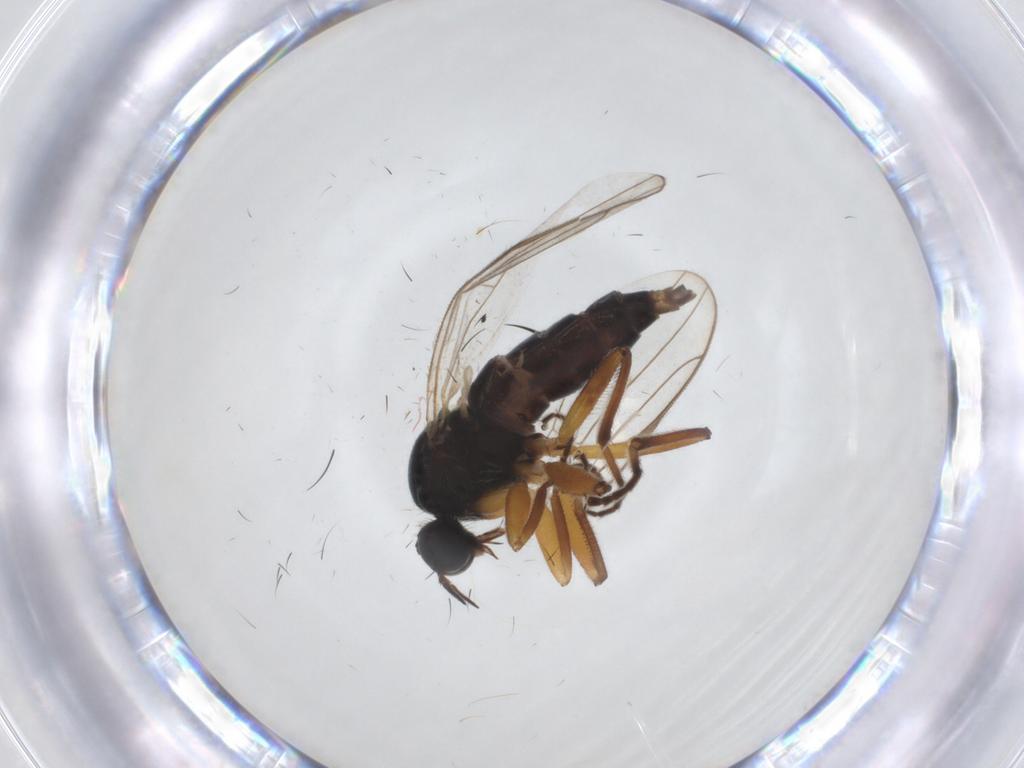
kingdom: Animalia
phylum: Arthropoda
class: Insecta
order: Diptera
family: Hybotidae
